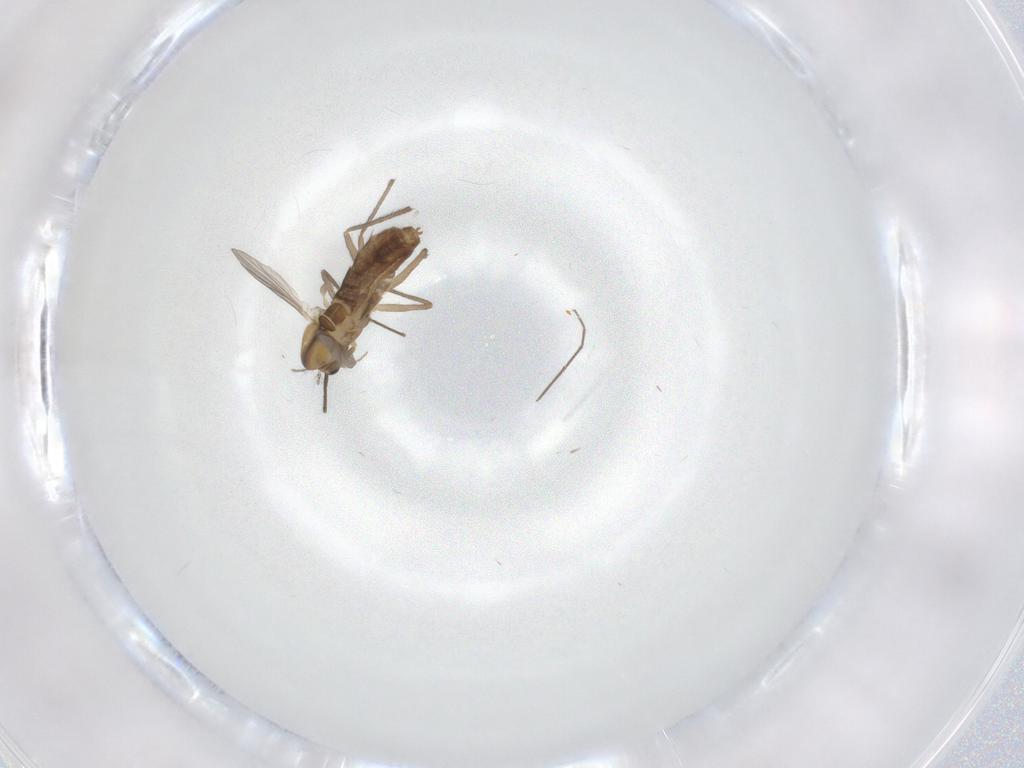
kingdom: Animalia
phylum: Arthropoda
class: Insecta
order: Diptera
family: Chironomidae
